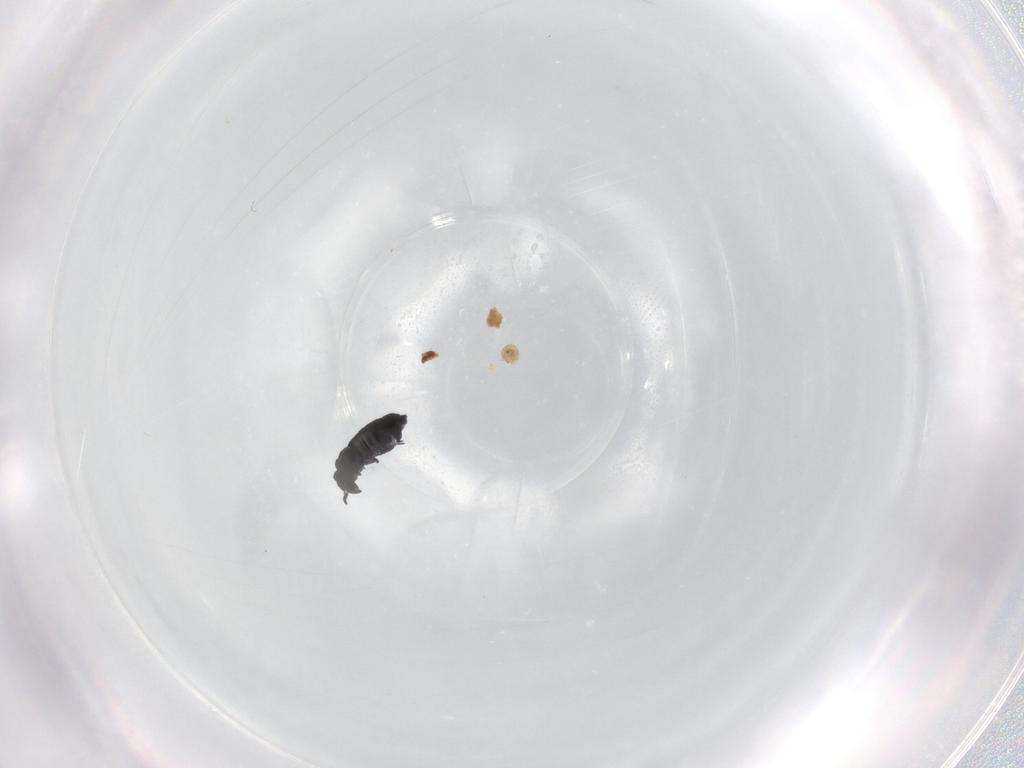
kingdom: Animalia
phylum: Arthropoda
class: Collembola
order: Poduromorpha
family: Hypogastruridae
